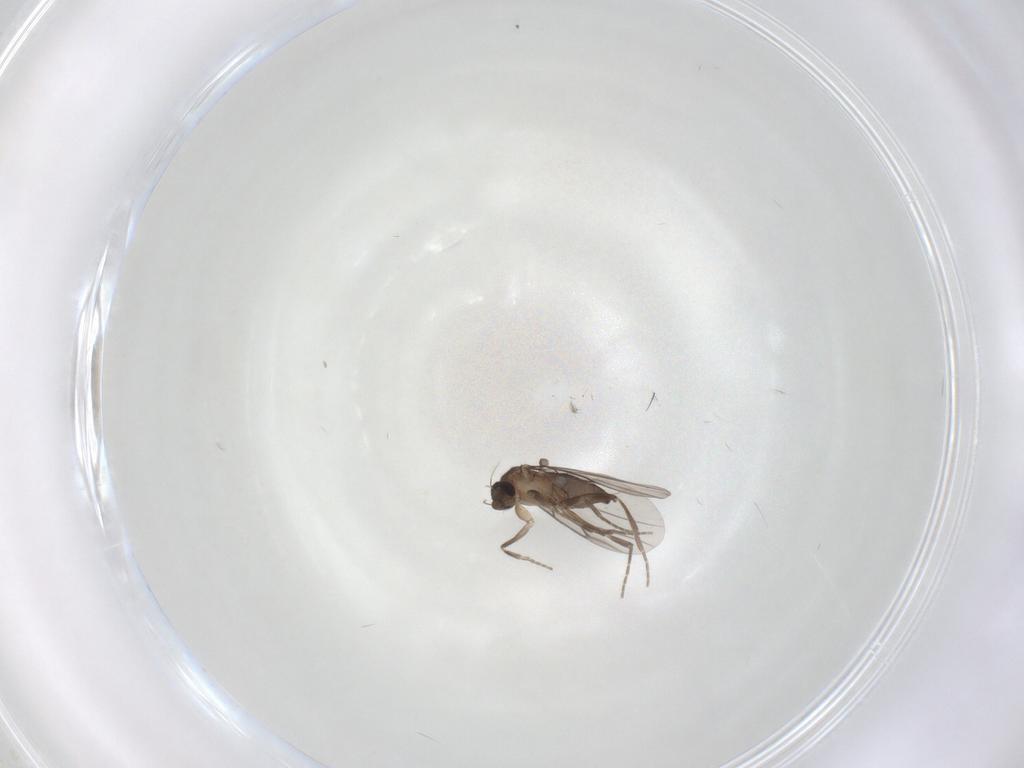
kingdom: Animalia
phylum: Arthropoda
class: Insecta
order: Diptera
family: Phoridae
